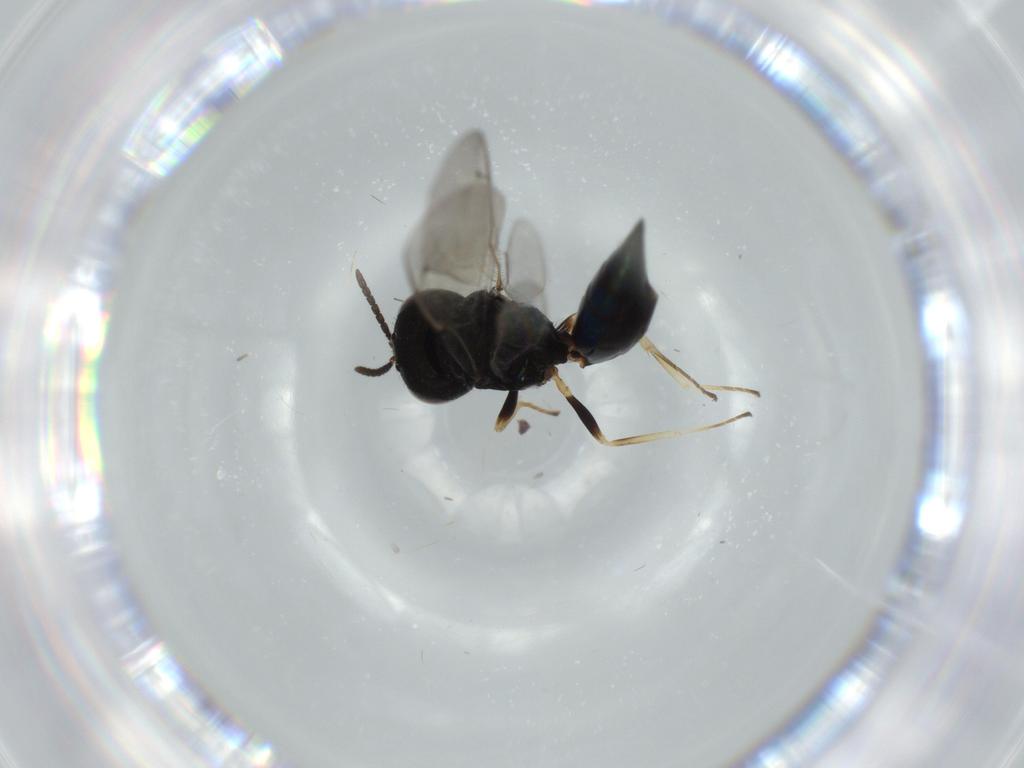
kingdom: Animalia
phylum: Arthropoda
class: Insecta
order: Hymenoptera
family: Pteromalidae
